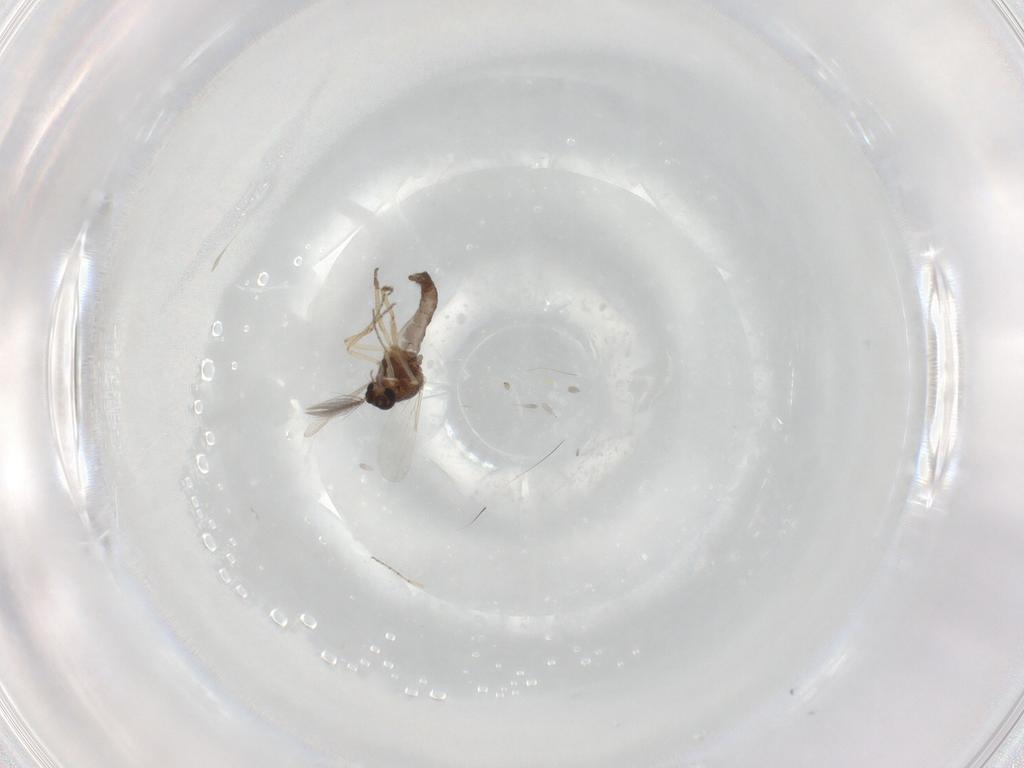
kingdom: Animalia
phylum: Arthropoda
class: Insecta
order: Diptera
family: Ceratopogonidae
